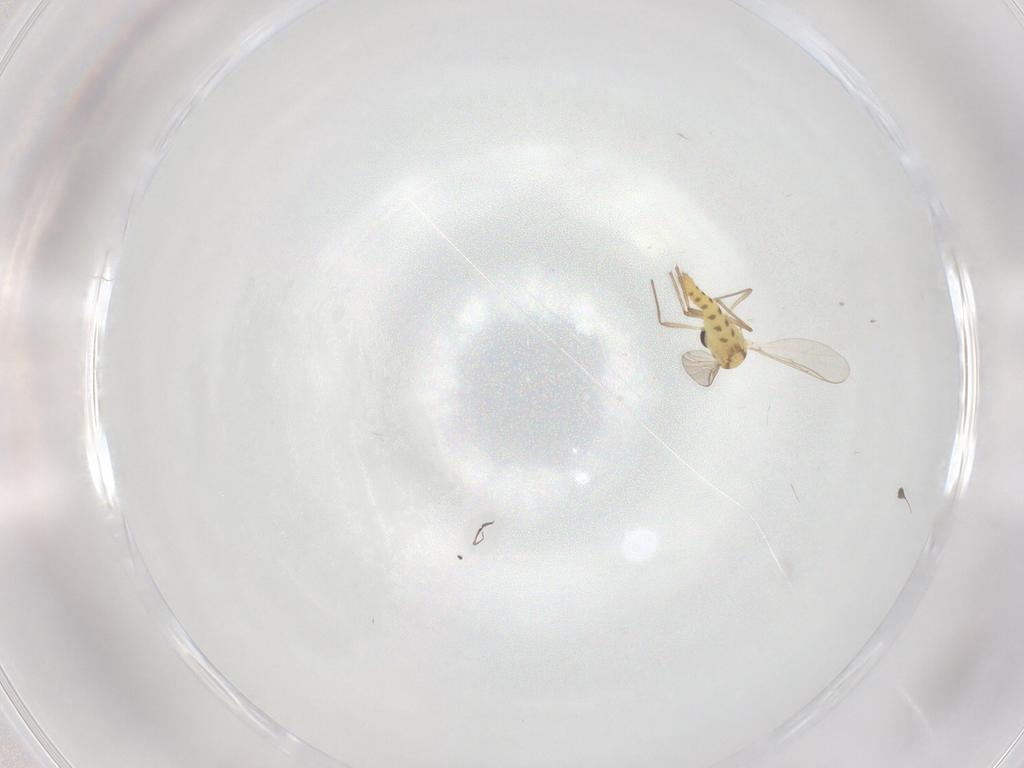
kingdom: Animalia
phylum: Arthropoda
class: Insecta
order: Diptera
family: Chironomidae
